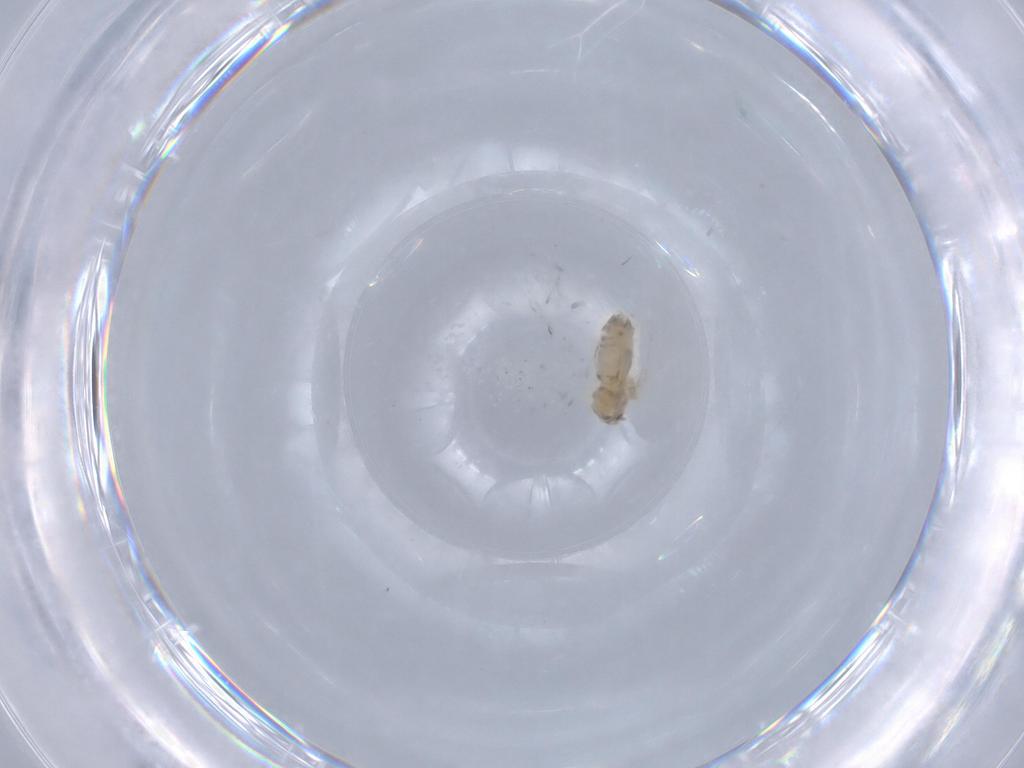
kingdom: Animalia
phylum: Arthropoda
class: Insecta
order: Hemiptera
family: Aleyrodidae
